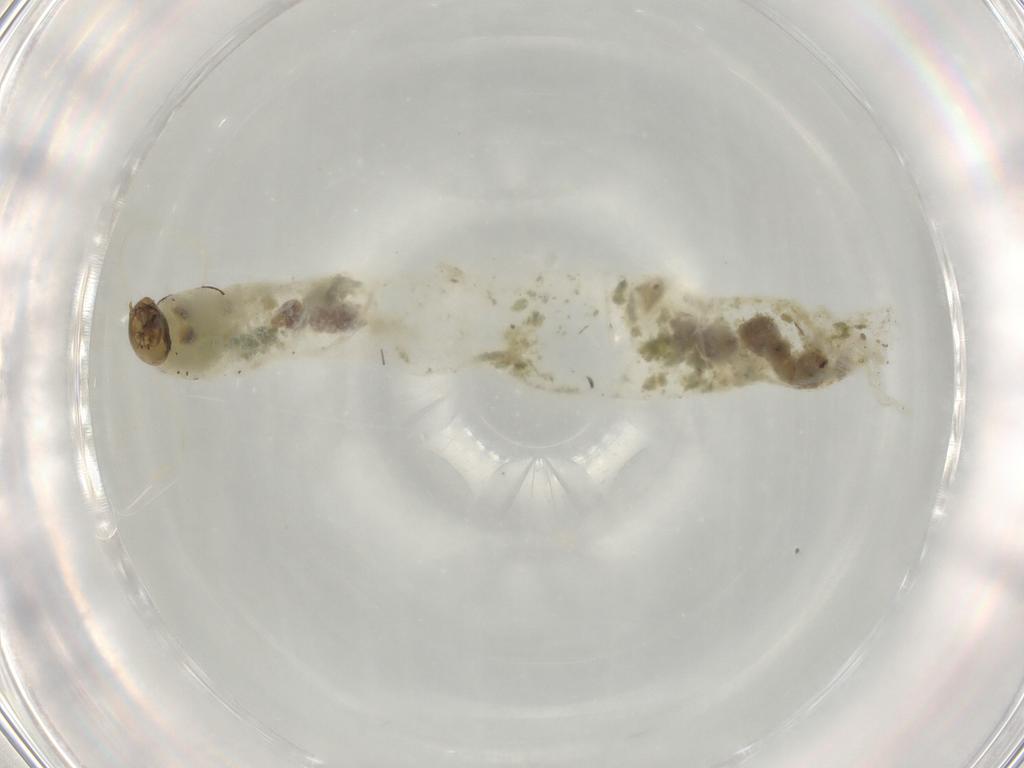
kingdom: Animalia
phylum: Arthropoda
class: Insecta
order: Diptera
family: Chironomidae
